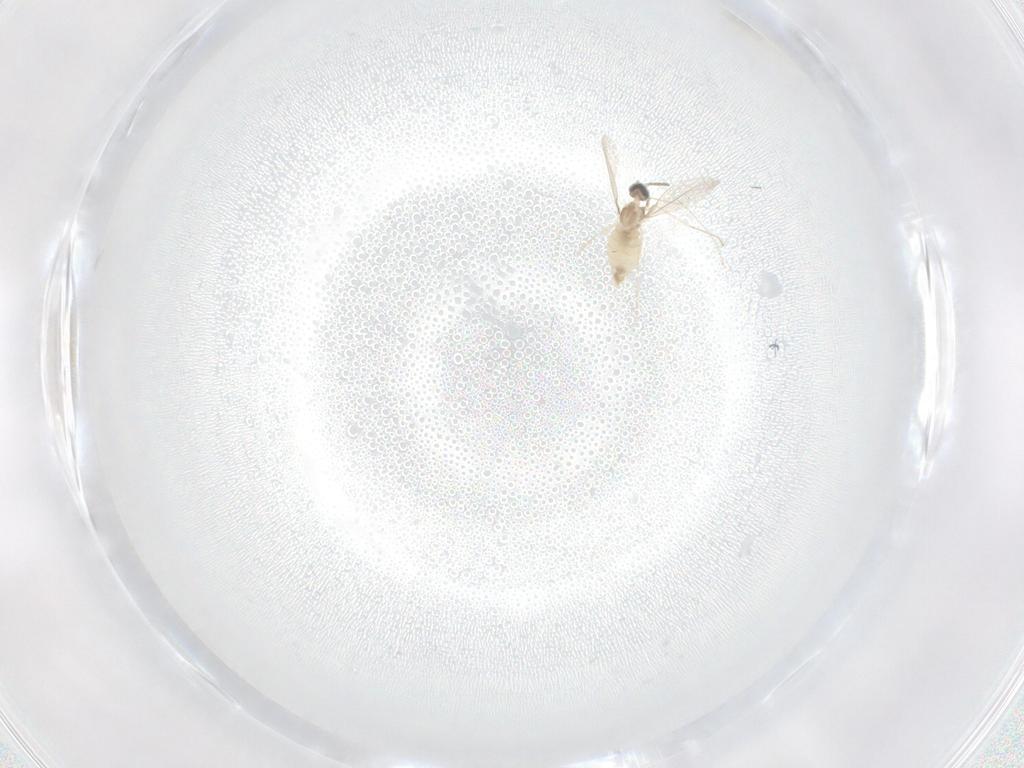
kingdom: Animalia
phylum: Arthropoda
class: Insecta
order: Diptera
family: Cecidomyiidae
